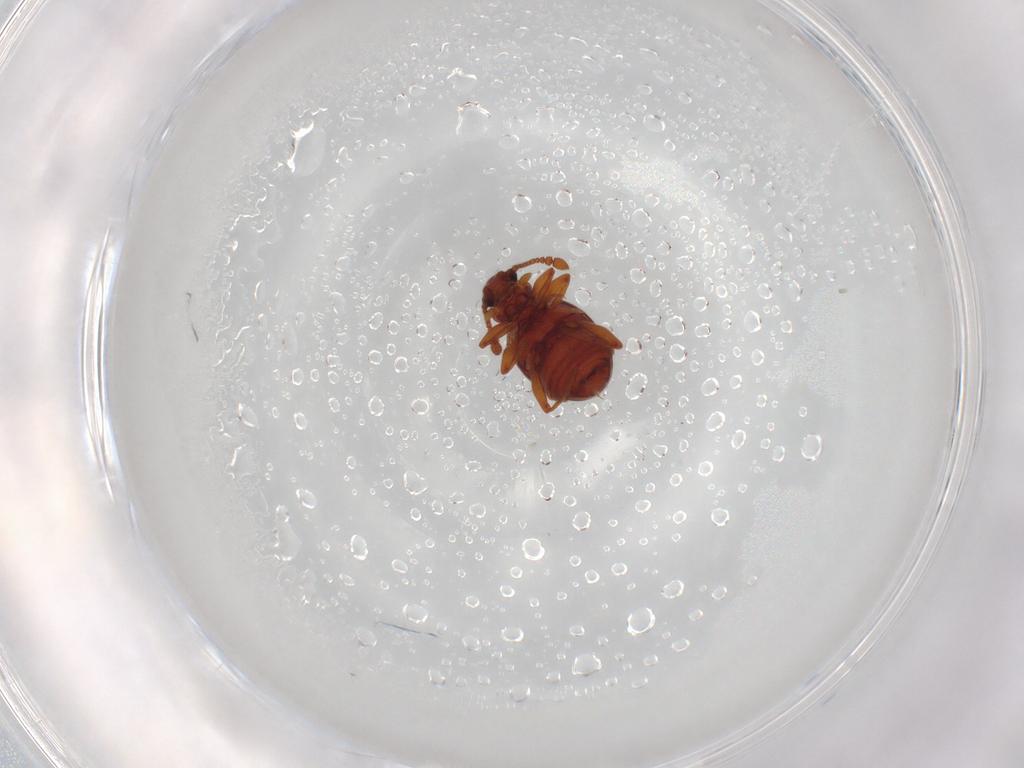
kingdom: Animalia
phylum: Arthropoda
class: Insecta
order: Coleoptera
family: Staphylinidae
